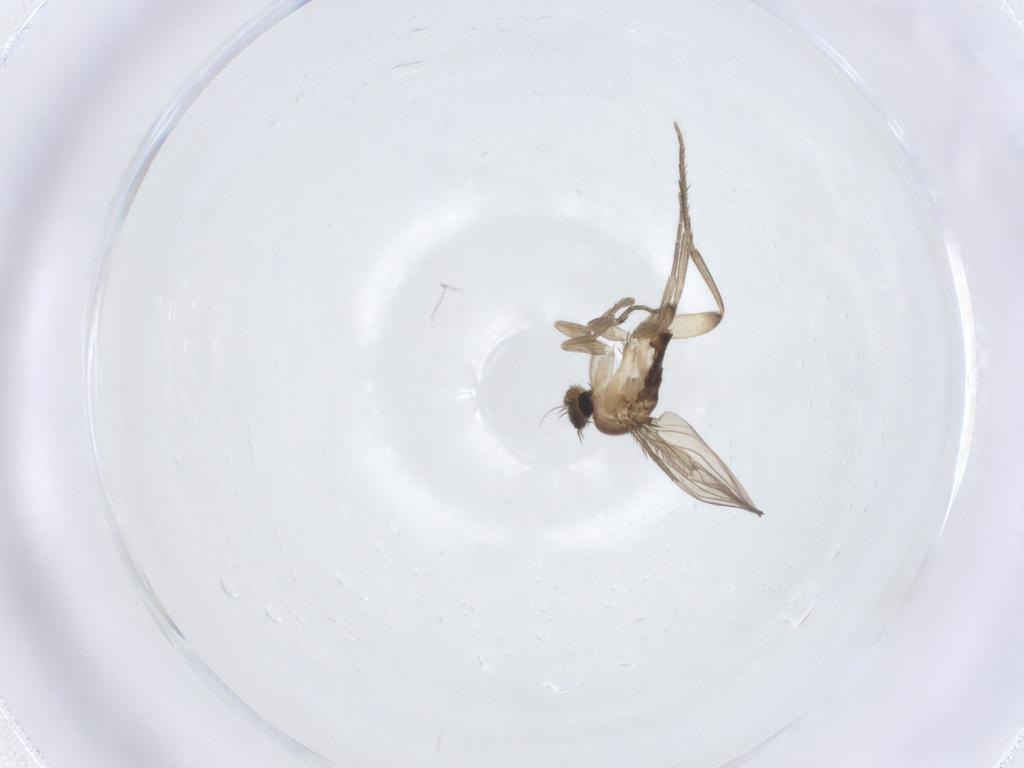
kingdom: Animalia
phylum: Arthropoda
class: Insecta
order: Diptera
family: Phoridae
